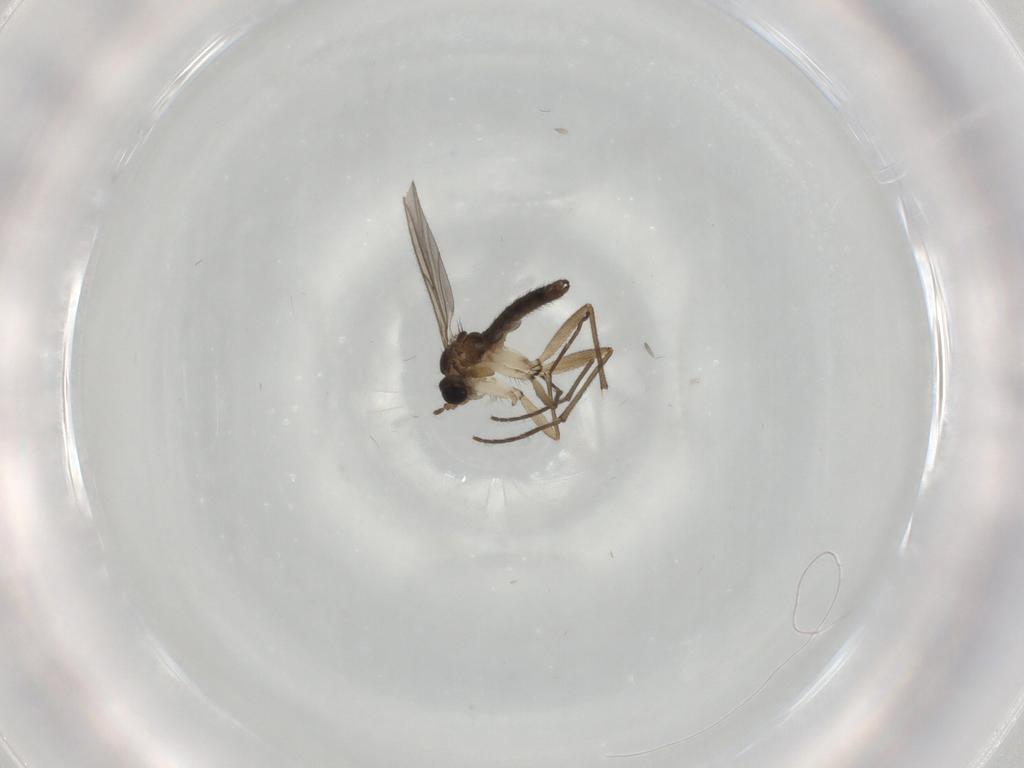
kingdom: Animalia
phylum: Arthropoda
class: Insecta
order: Diptera
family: Sciaridae
